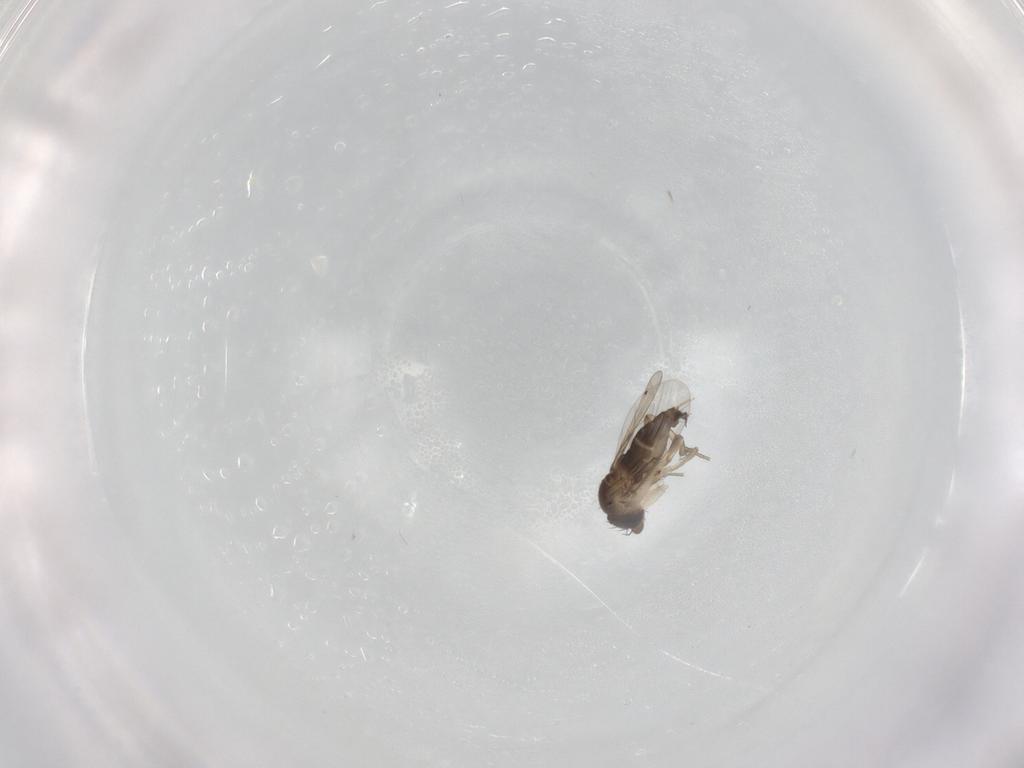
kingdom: Animalia
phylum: Arthropoda
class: Insecta
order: Diptera
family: Phoridae
